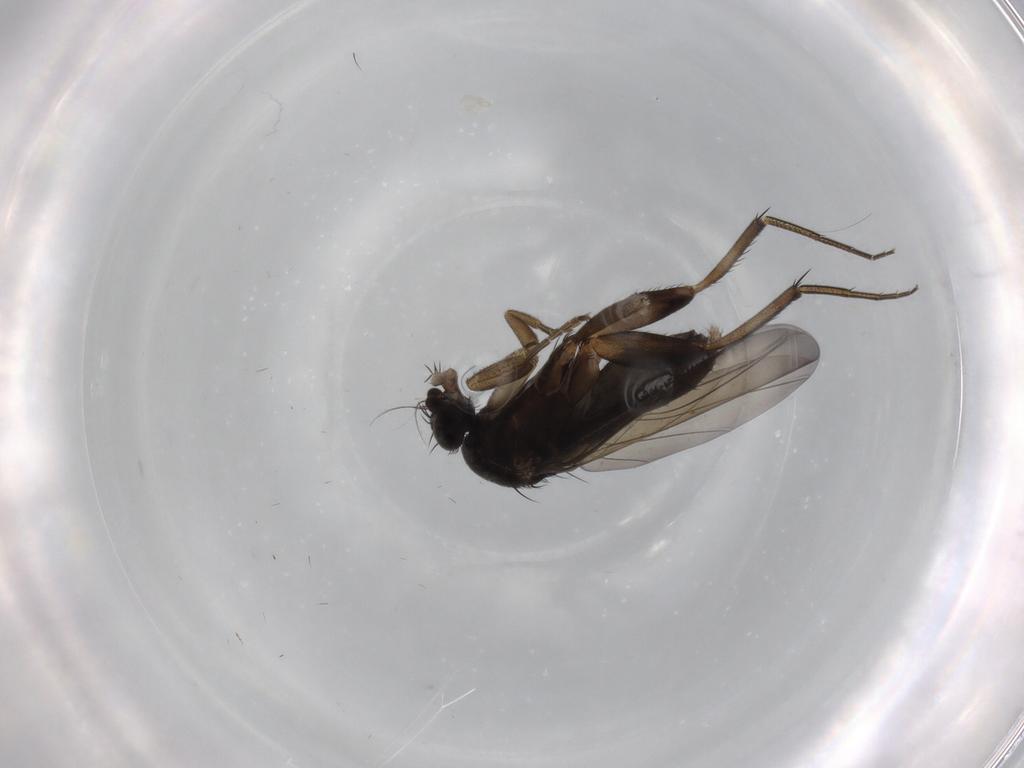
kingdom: Animalia
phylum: Arthropoda
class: Insecta
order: Diptera
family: Phoridae
